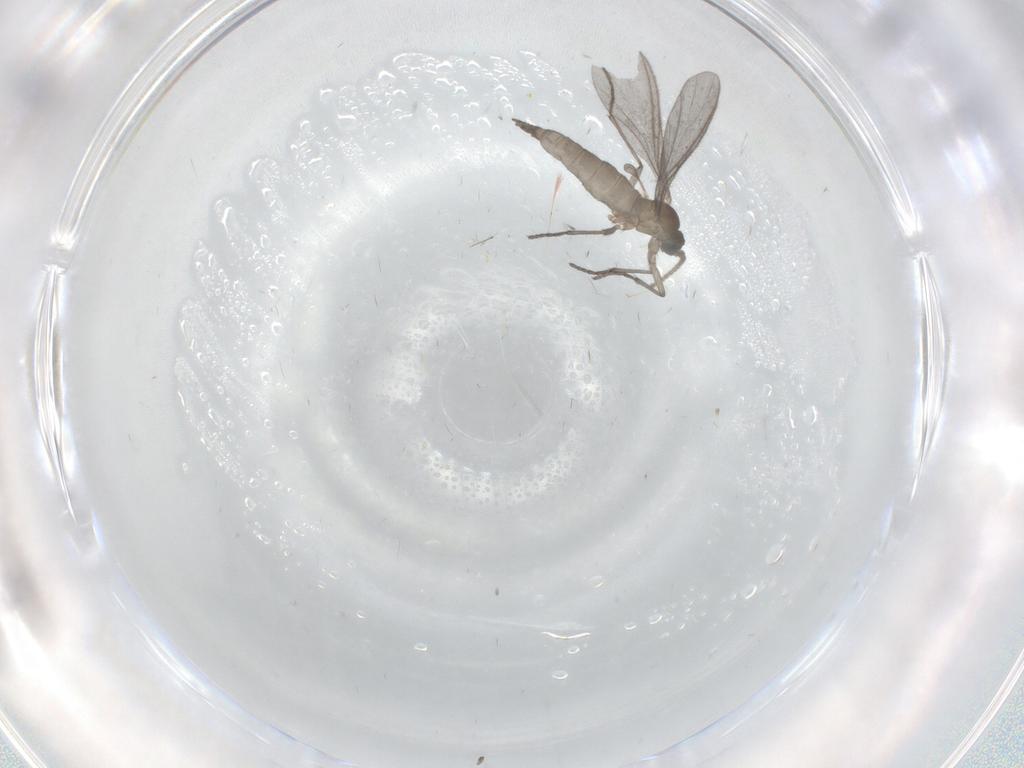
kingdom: Animalia
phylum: Arthropoda
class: Insecta
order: Diptera
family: Sciaridae
